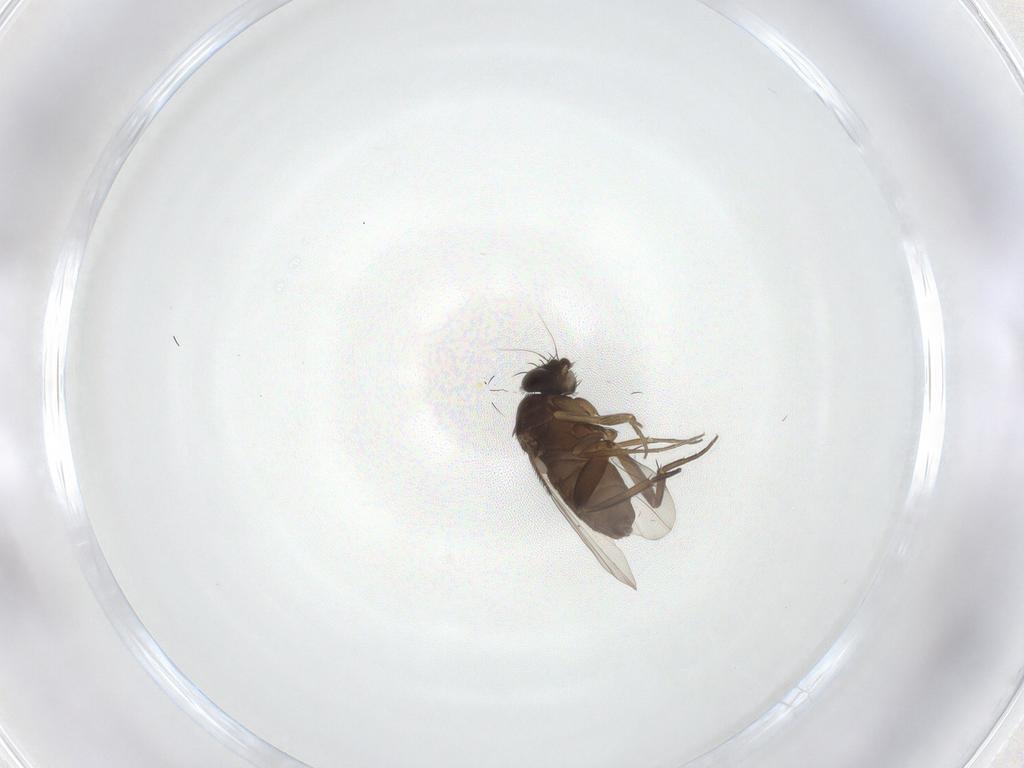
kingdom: Animalia
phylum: Arthropoda
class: Insecta
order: Diptera
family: Phoridae
